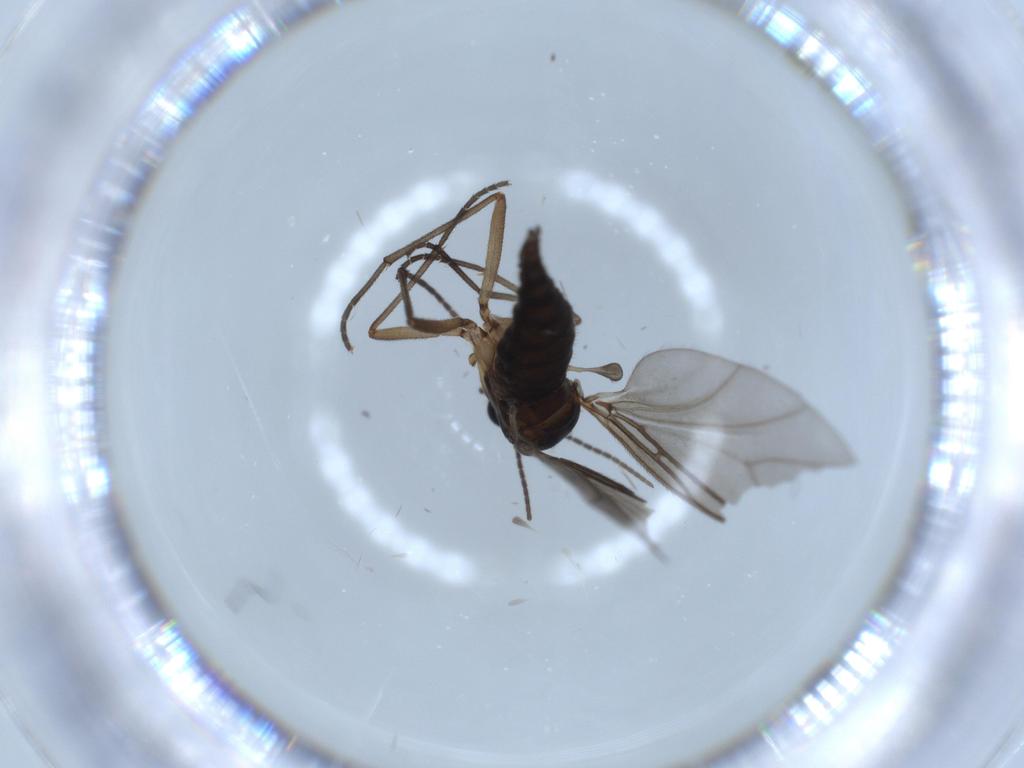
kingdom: Animalia
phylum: Arthropoda
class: Insecta
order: Diptera
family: Sciaridae
